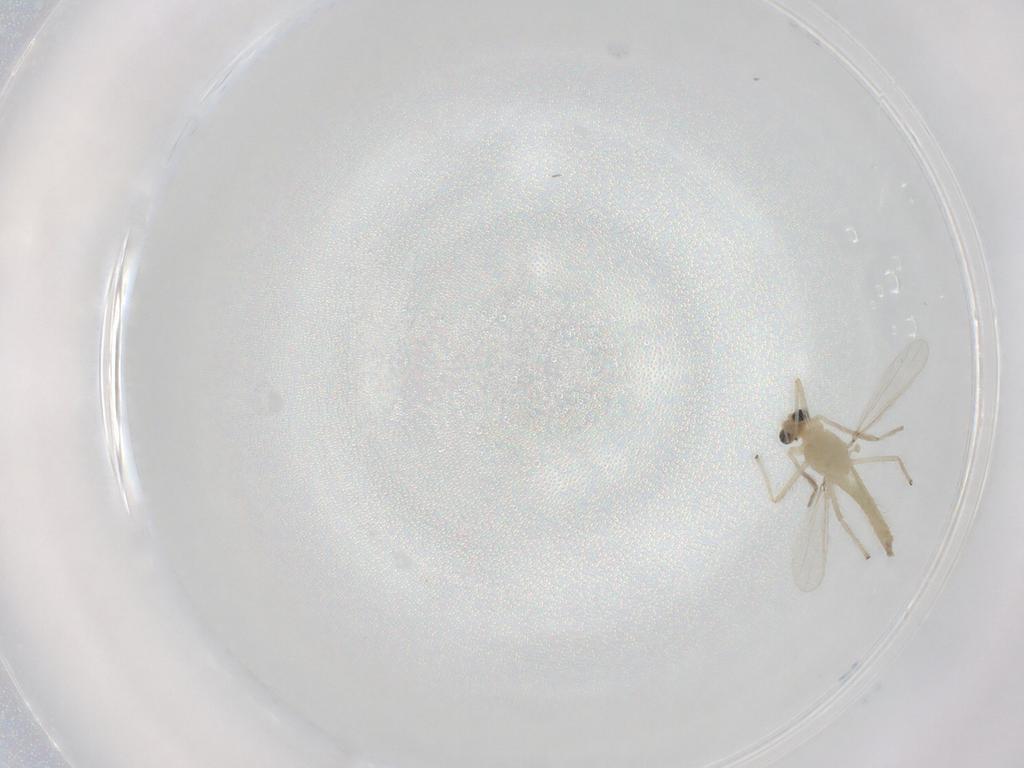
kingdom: Animalia
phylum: Arthropoda
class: Insecta
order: Diptera
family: Chironomidae
